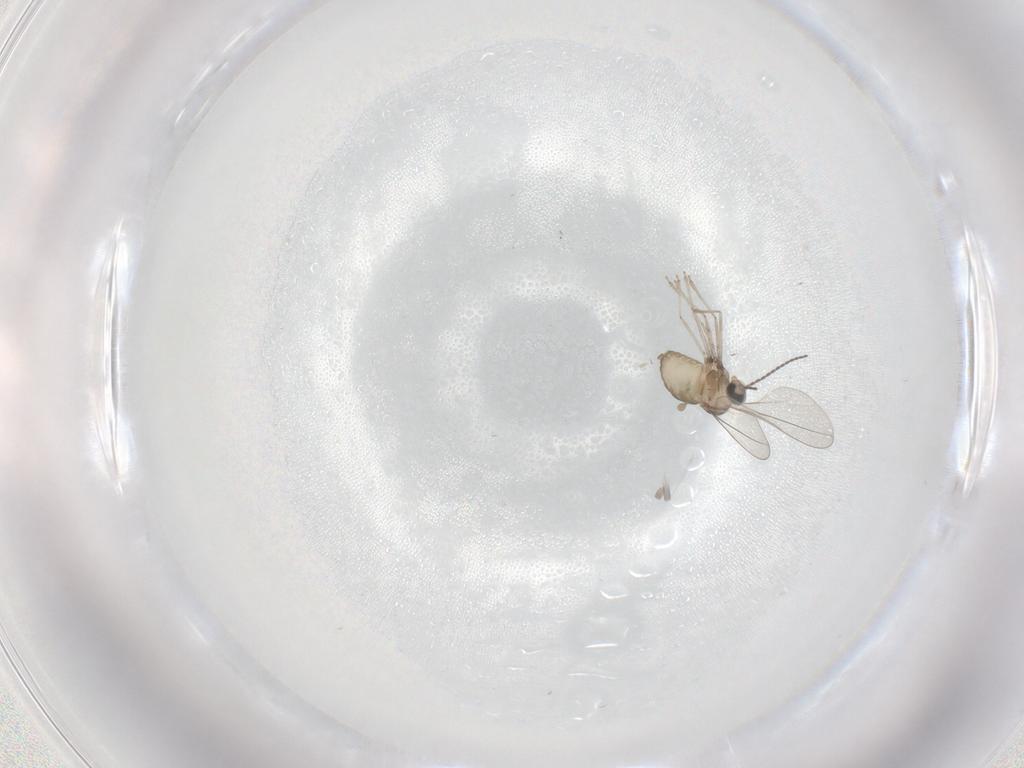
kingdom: Animalia
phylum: Arthropoda
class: Insecta
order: Diptera
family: Cecidomyiidae
